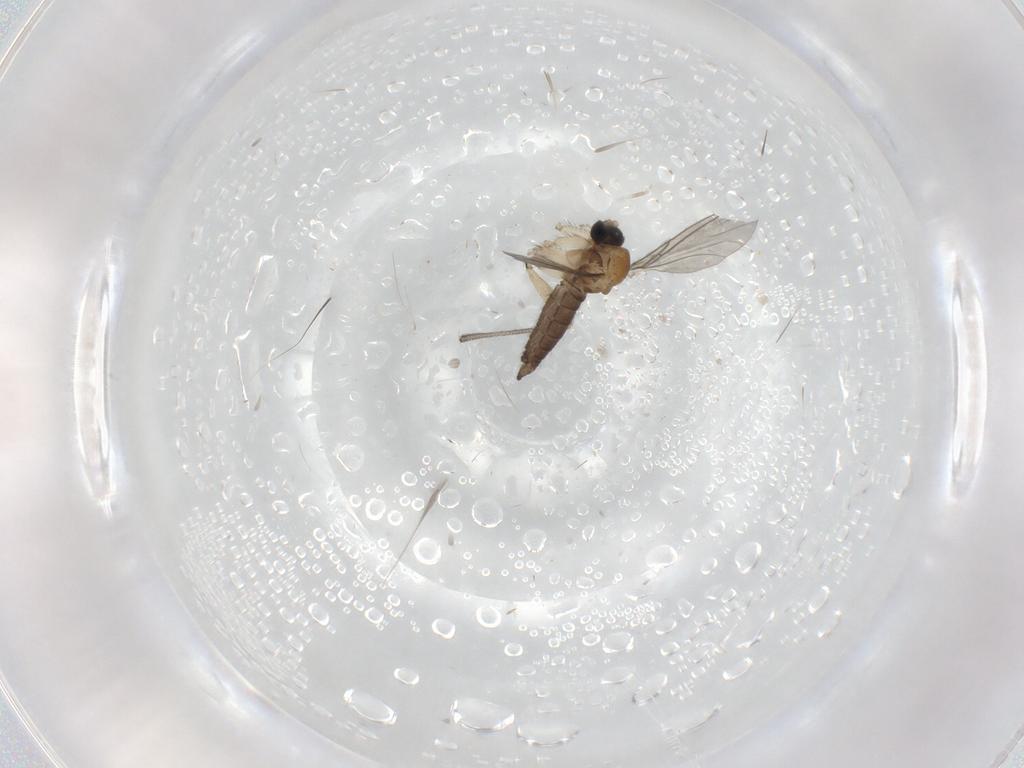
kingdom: Animalia
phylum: Arthropoda
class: Insecta
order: Diptera
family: Sciaridae
